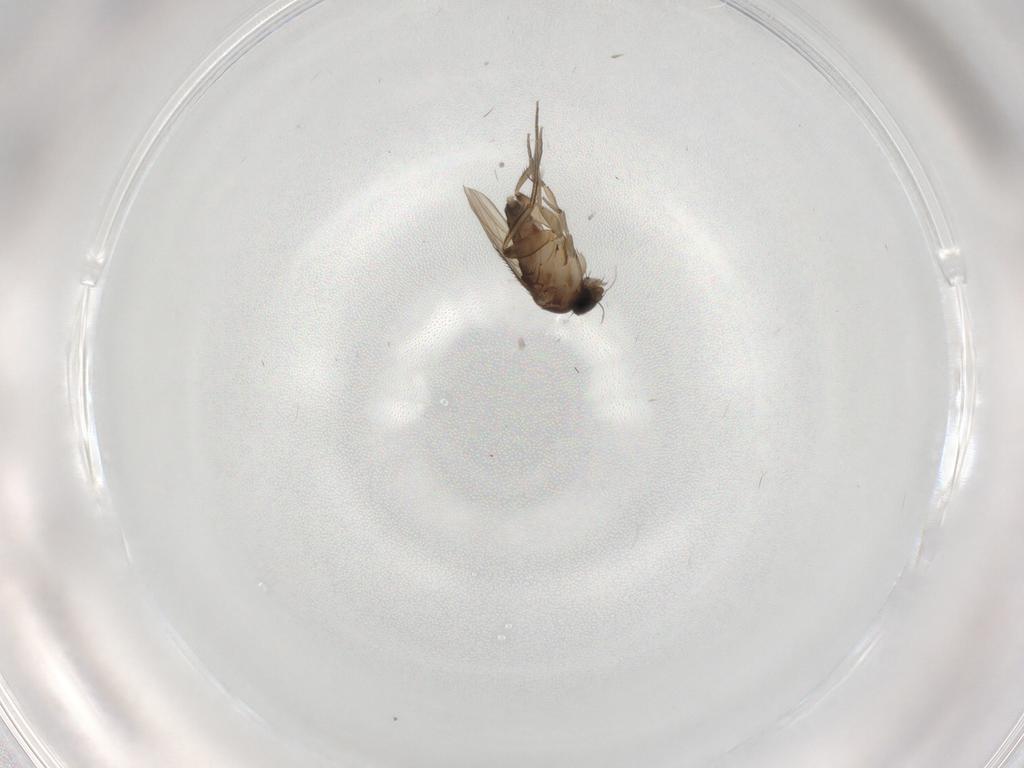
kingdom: Animalia
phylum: Arthropoda
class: Insecta
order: Diptera
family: Phoridae
